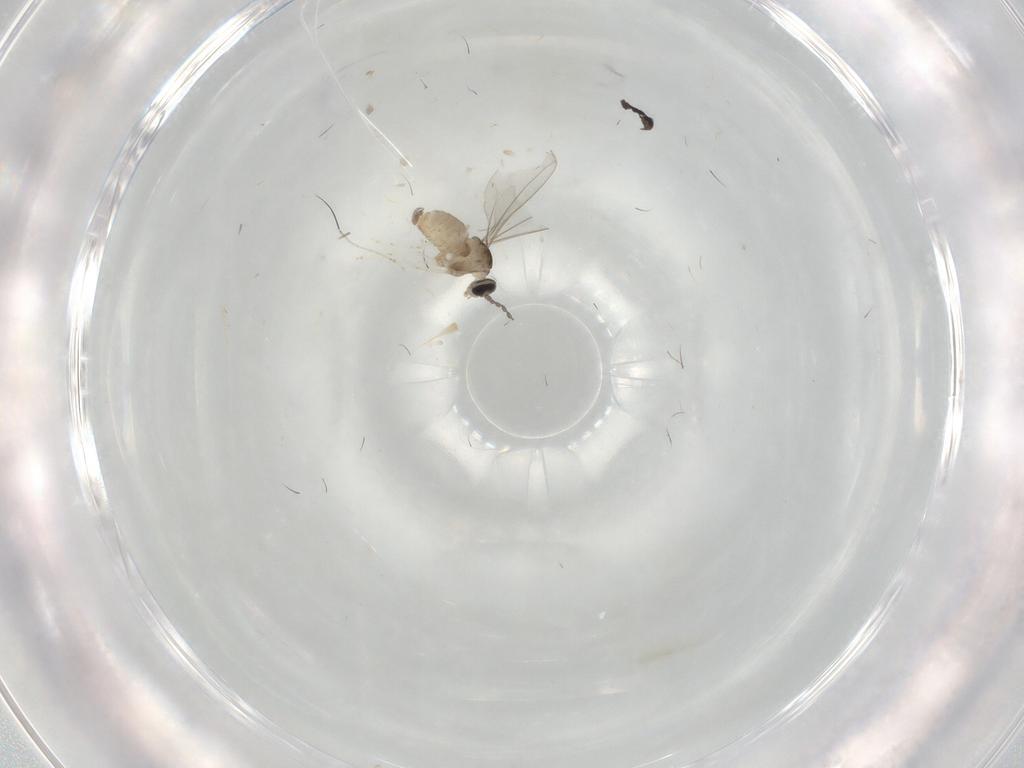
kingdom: Animalia
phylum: Arthropoda
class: Insecta
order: Diptera
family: Cecidomyiidae
